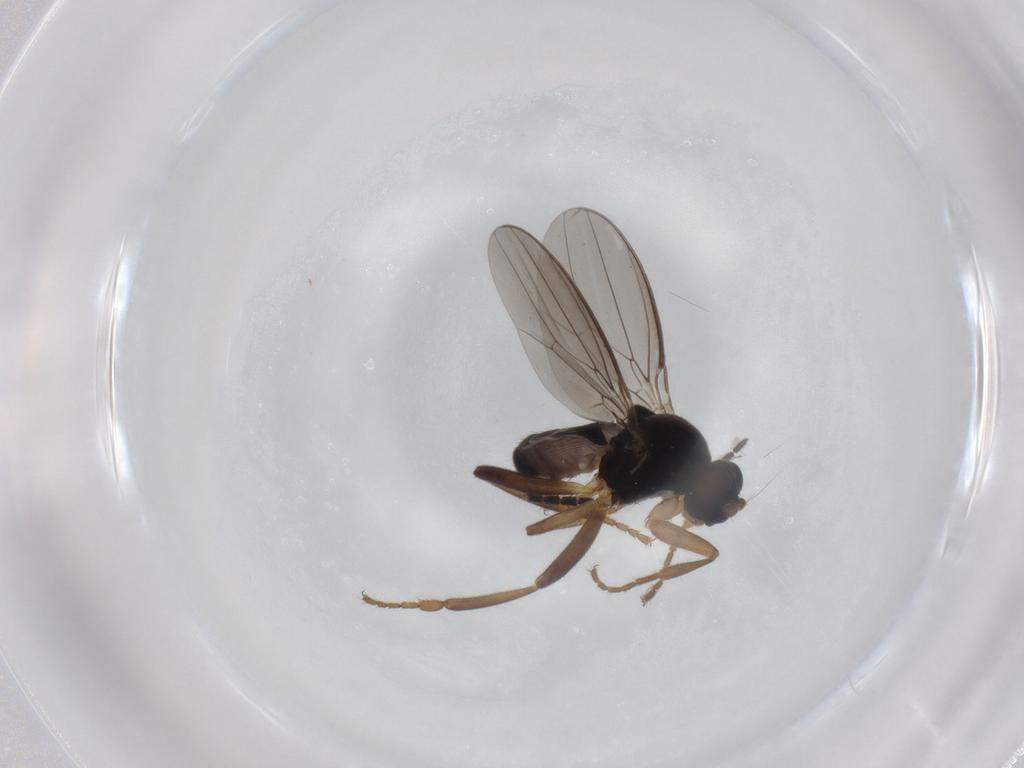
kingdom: Animalia
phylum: Arthropoda
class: Insecta
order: Diptera
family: Sphaeroceridae
